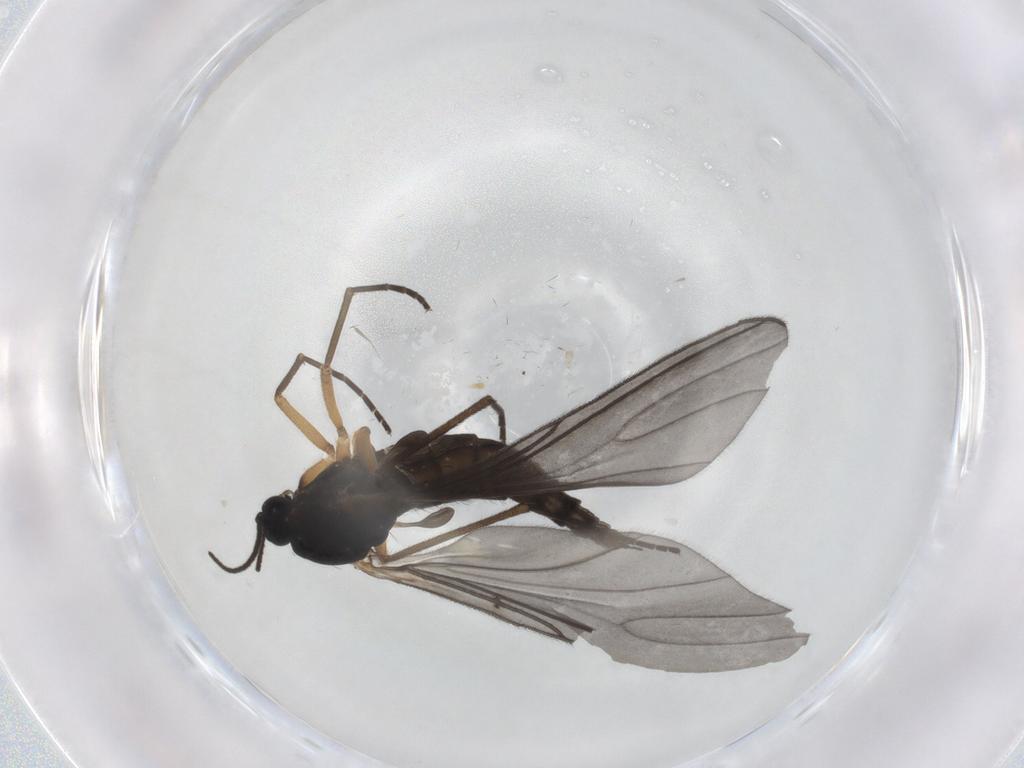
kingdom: Animalia
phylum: Arthropoda
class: Insecta
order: Diptera
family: Sciaridae
